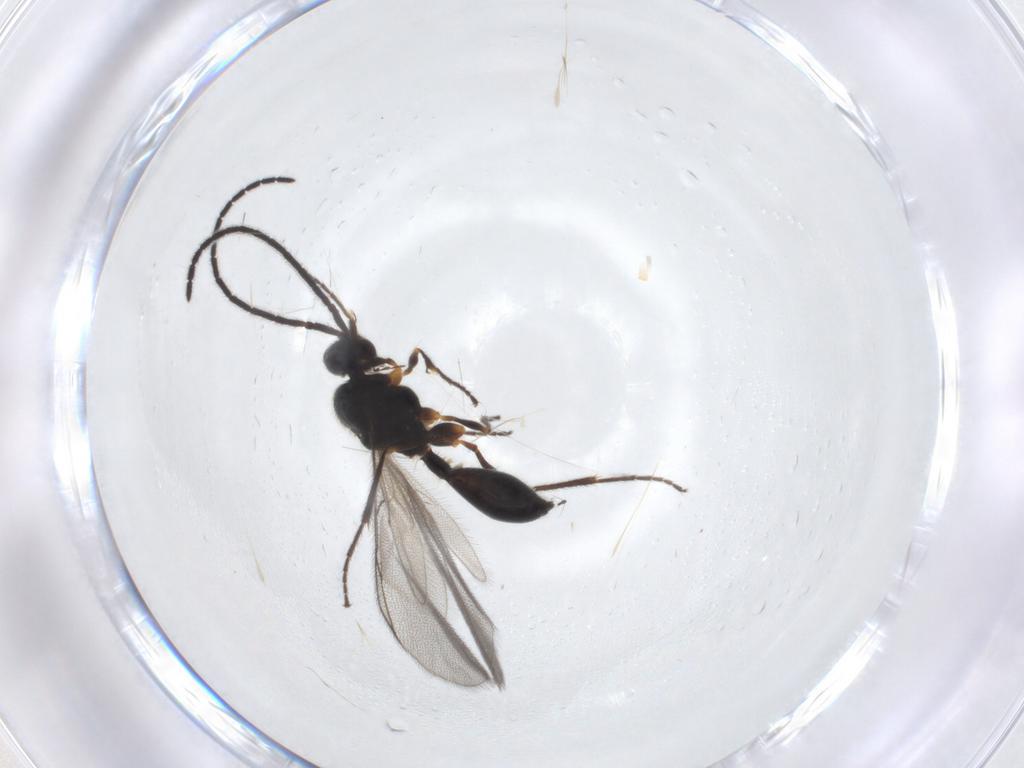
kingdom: Animalia
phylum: Arthropoda
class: Insecta
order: Hymenoptera
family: Diapriidae
